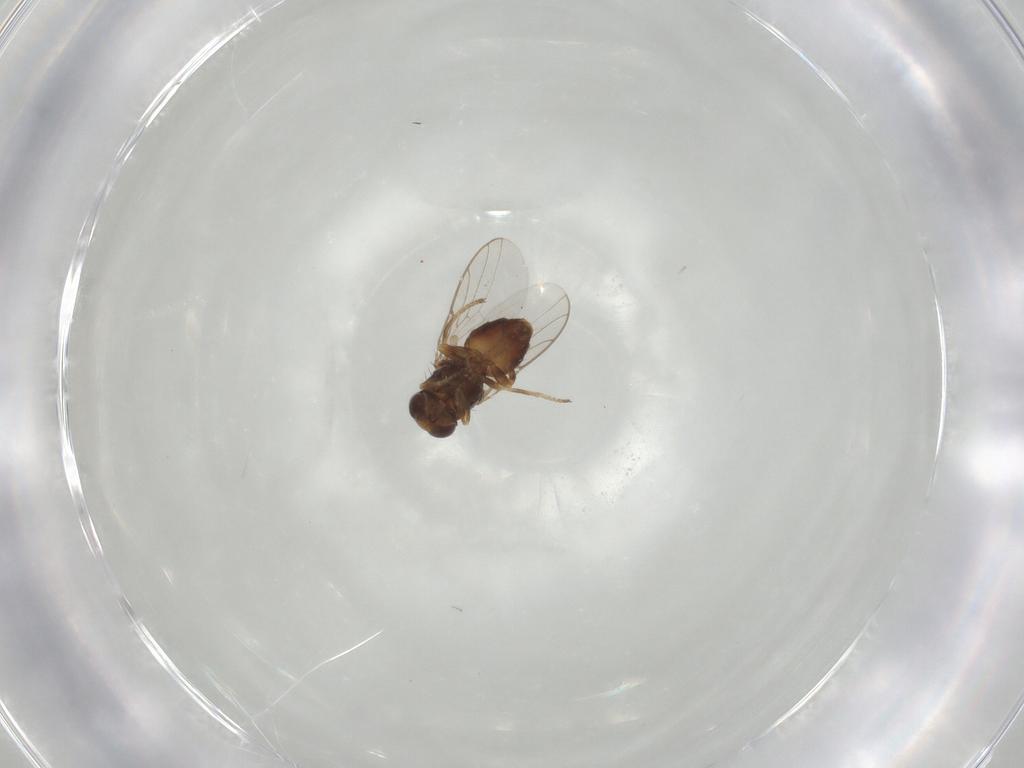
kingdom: Animalia
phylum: Arthropoda
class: Insecta
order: Diptera
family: Chloropidae
